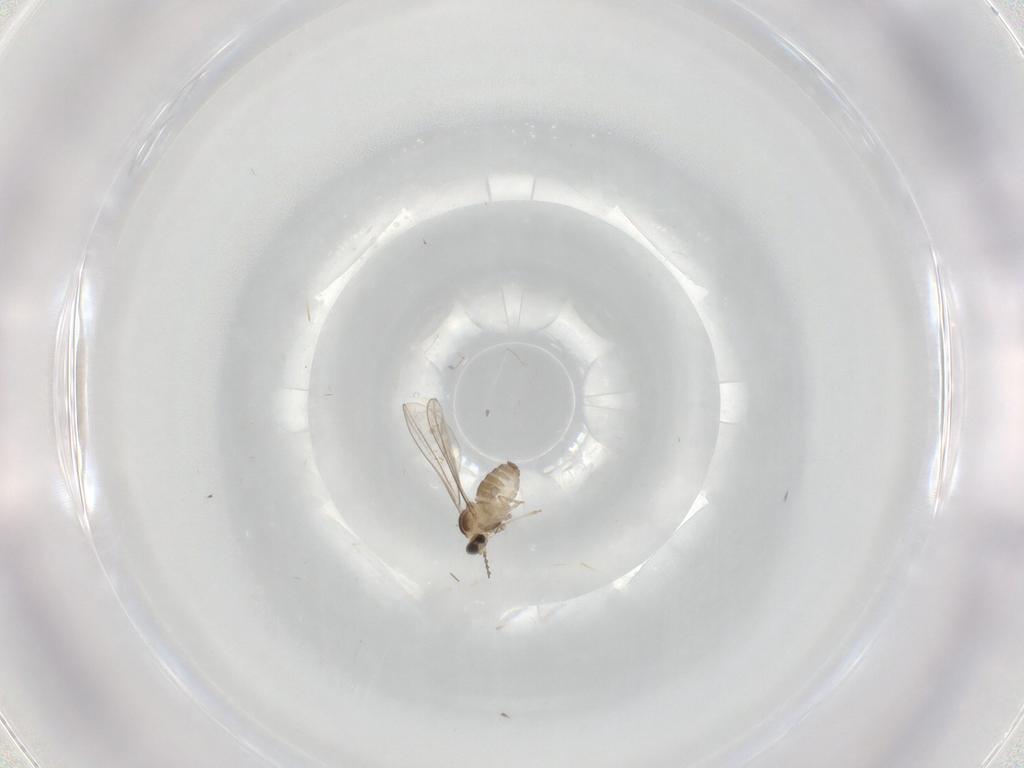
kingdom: Animalia
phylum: Arthropoda
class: Insecta
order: Diptera
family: Cecidomyiidae
